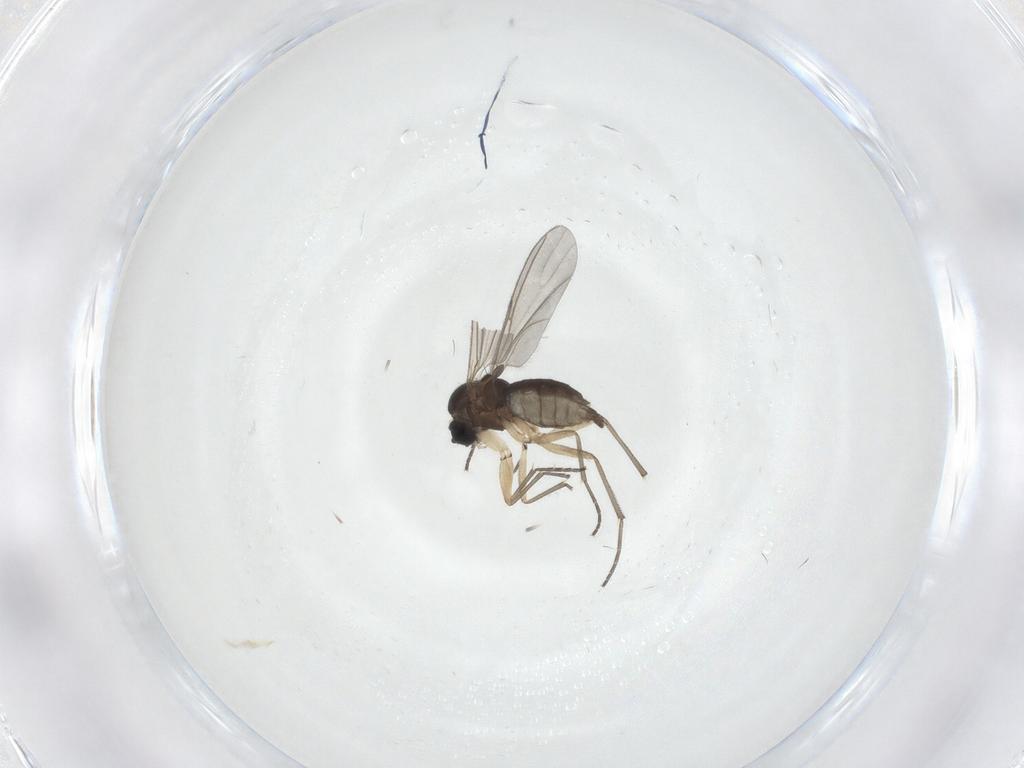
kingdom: Animalia
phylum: Arthropoda
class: Insecta
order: Diptera
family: Sciaridae
